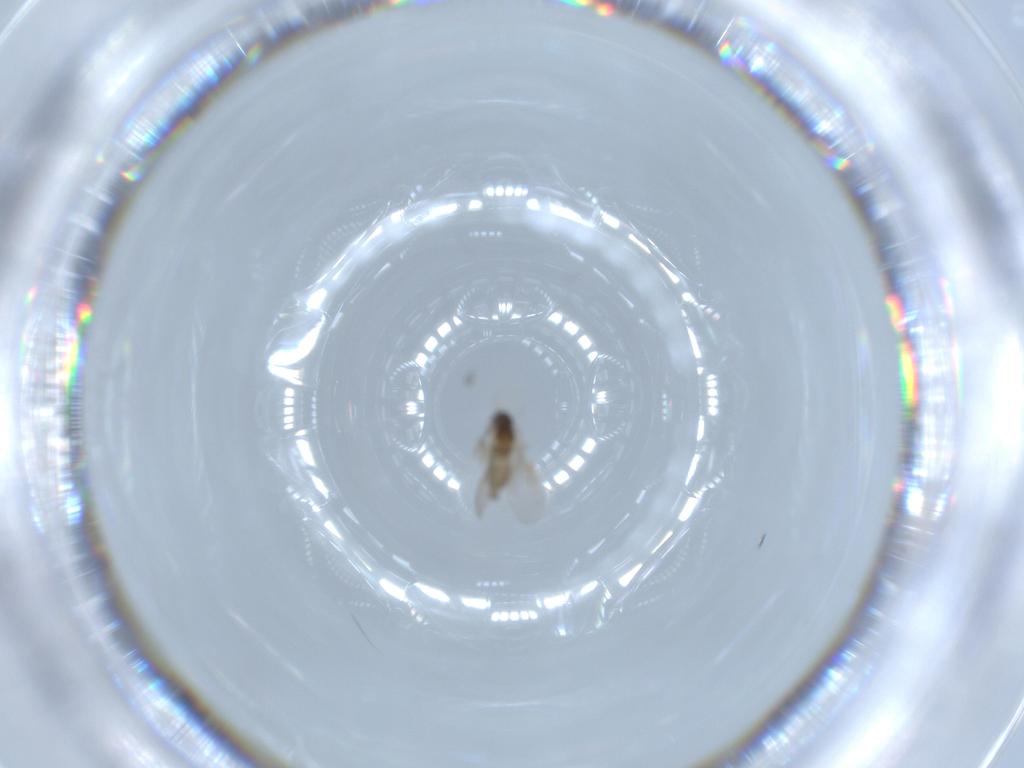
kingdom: Animalia
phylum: Arthropoda
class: Insecta
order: Diptera
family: Cecidomyiidae
